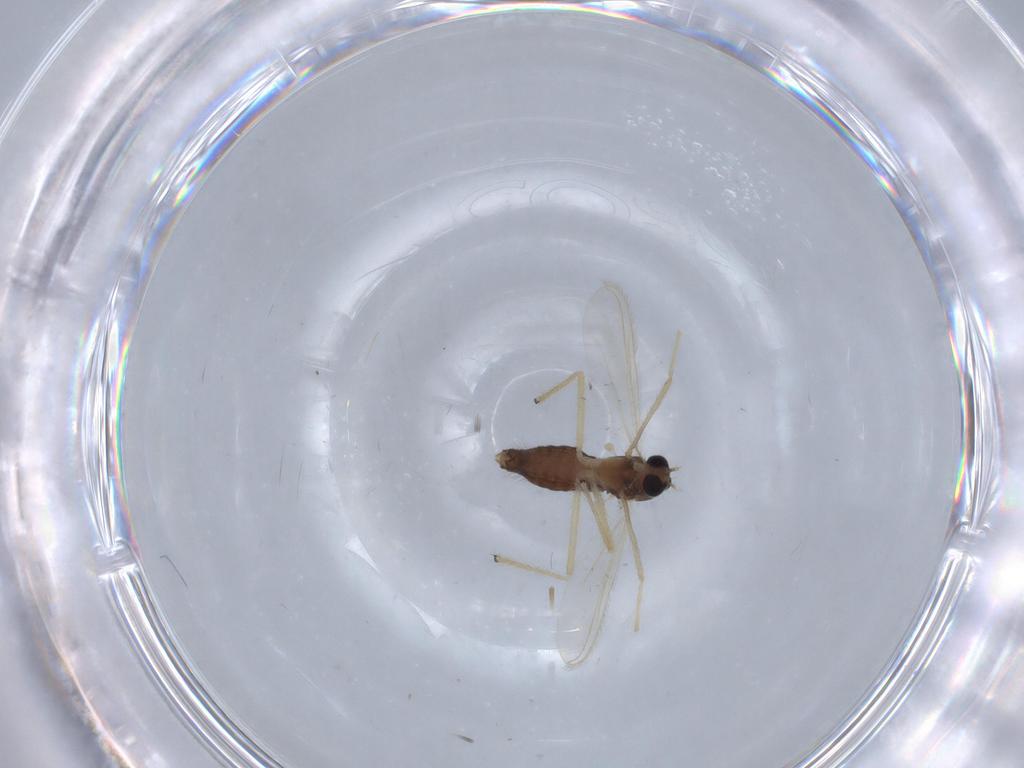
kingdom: Animalia
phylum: Arthropoda
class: Insecta
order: Diptera
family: Chironomidae
